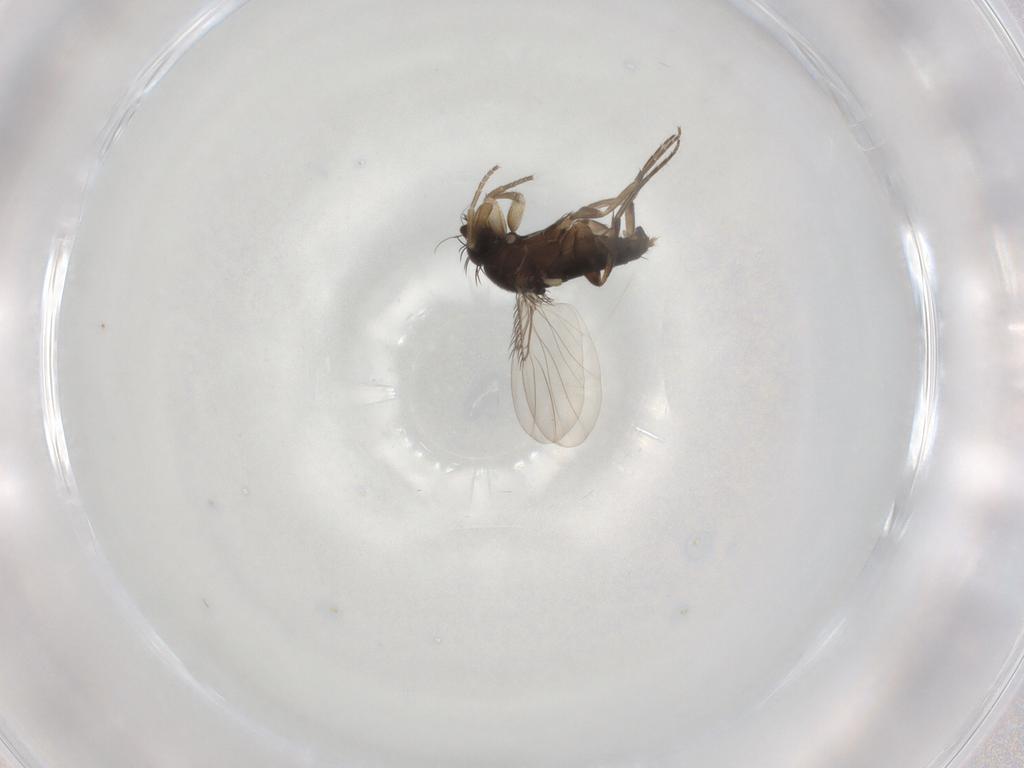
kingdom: Animalia
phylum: Arthropoda
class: Insecta
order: Diptera
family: Phoridae
